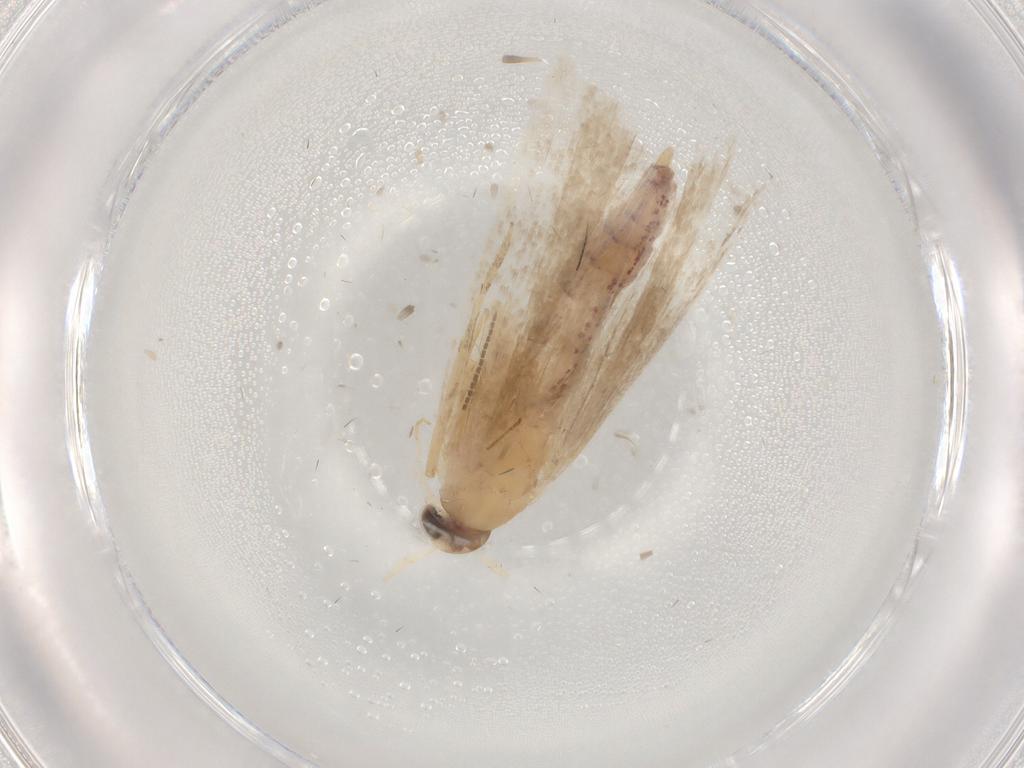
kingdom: Animalia
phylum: Arthropoda
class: Insecta
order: Lepidoptera
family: Gelechiidae
